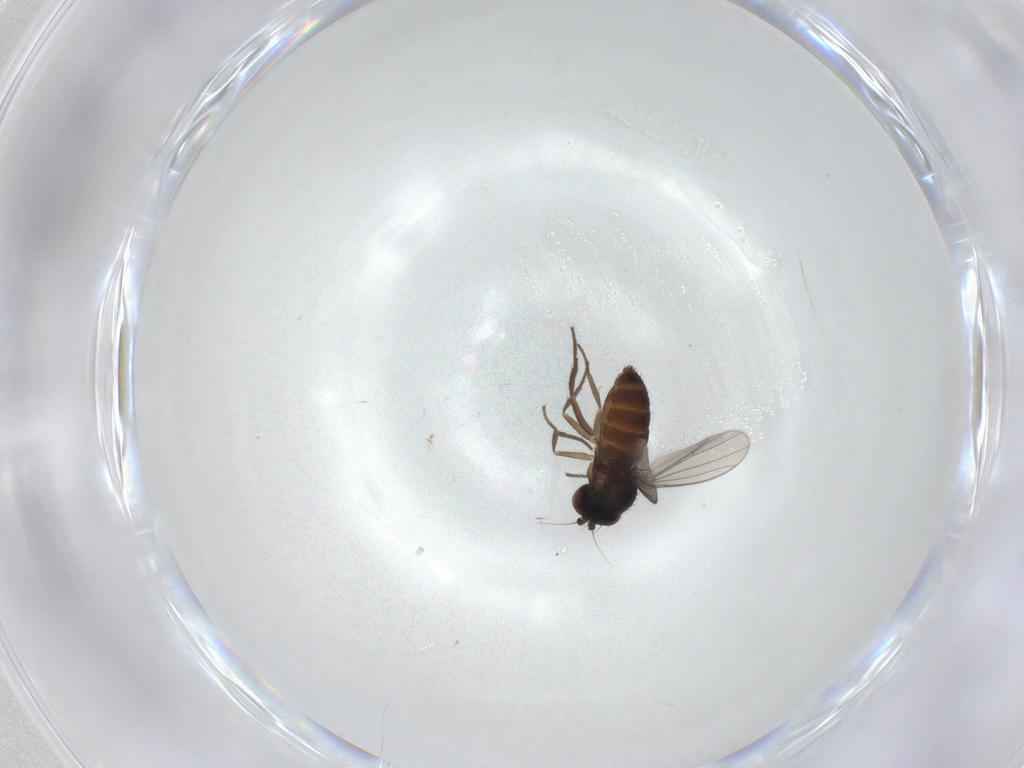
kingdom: Animalia
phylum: Arthropoda
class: Insecta
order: Diptera
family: Dolichopodidae
